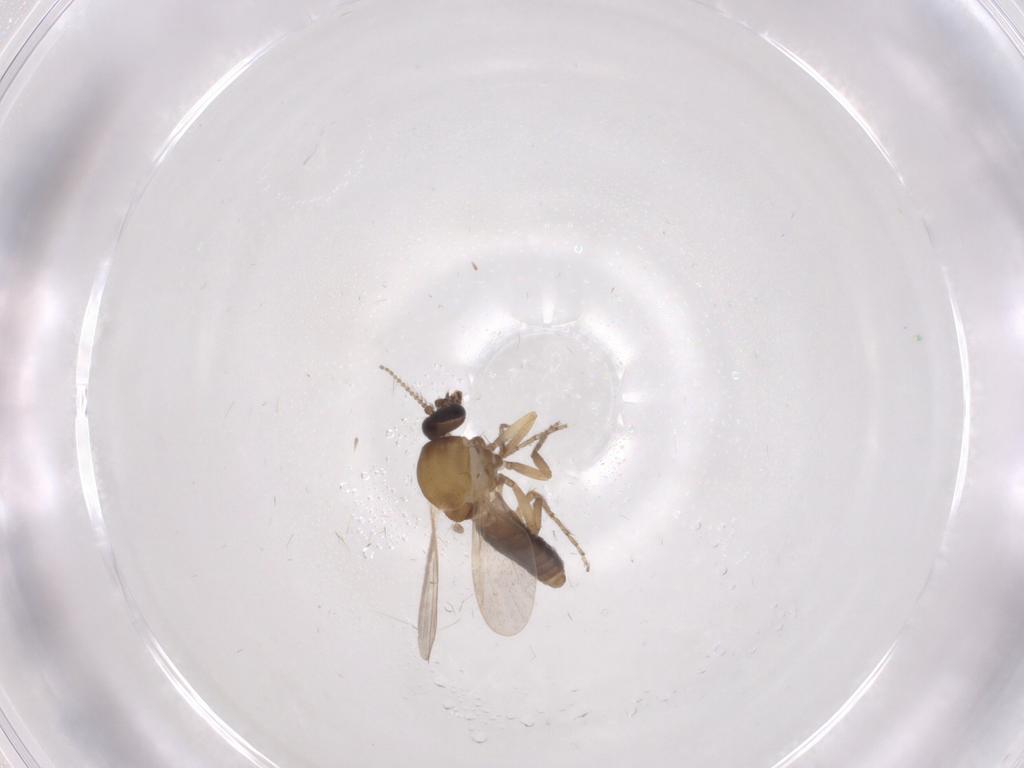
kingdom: Animalia
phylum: Arthropoda
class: Insecta
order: Diptera
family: Ceratopogonidae
